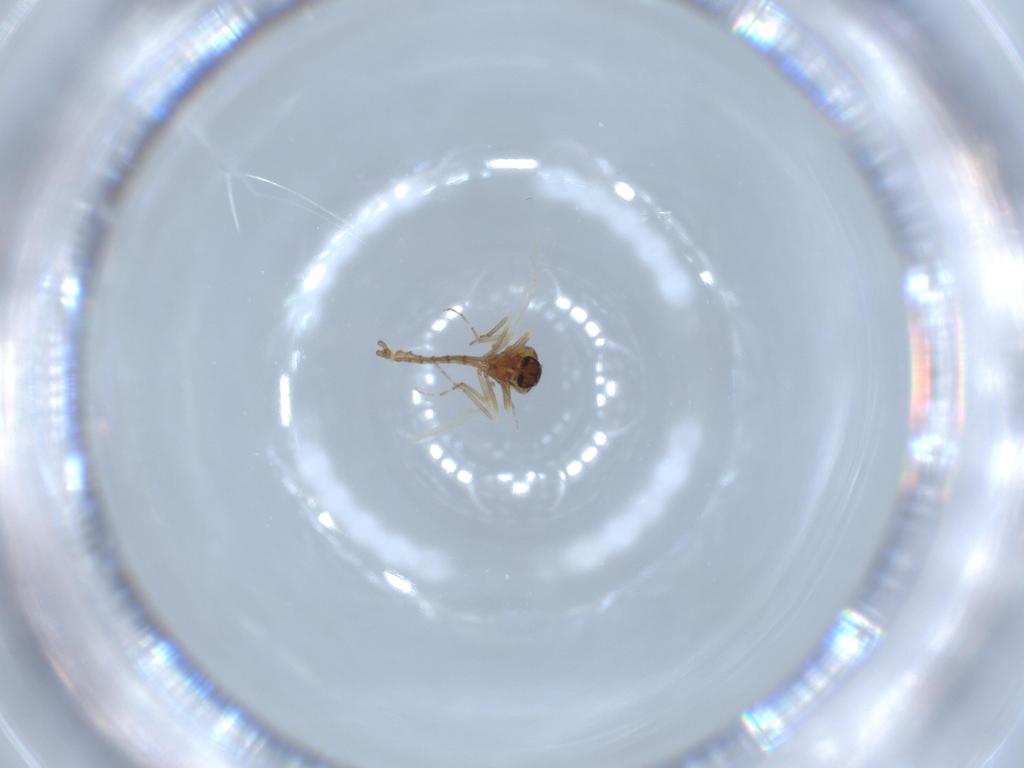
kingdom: Animalia
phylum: Arthropoda
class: Insecta
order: Diptera
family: Ceratopogonidae
